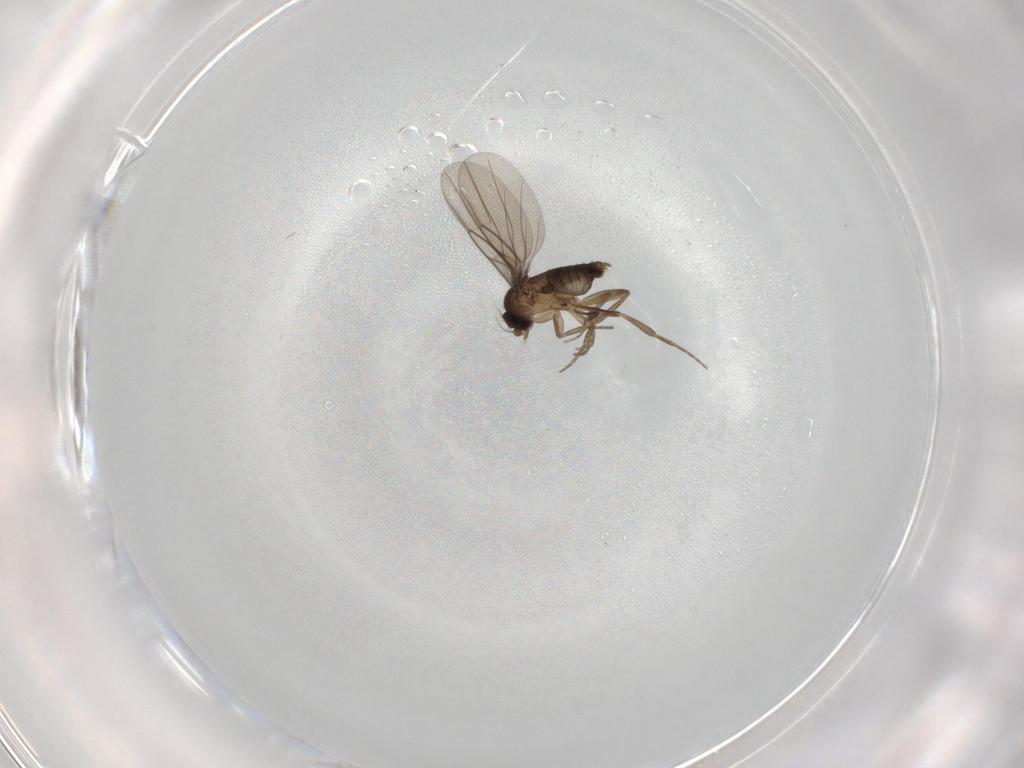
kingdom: Animalia
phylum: Arthropoda
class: Insecta
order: Diptera
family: Phoridae
